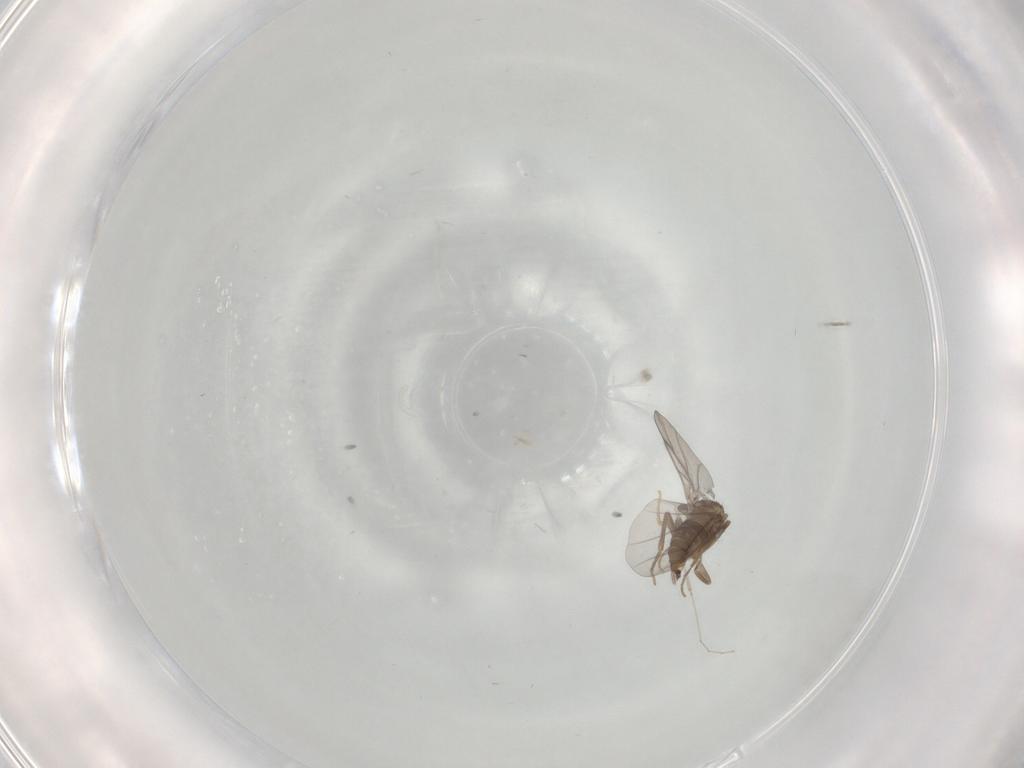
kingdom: Animalia
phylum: Arthropoda
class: Insecta
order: Diptera
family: Cecidomyiidae
